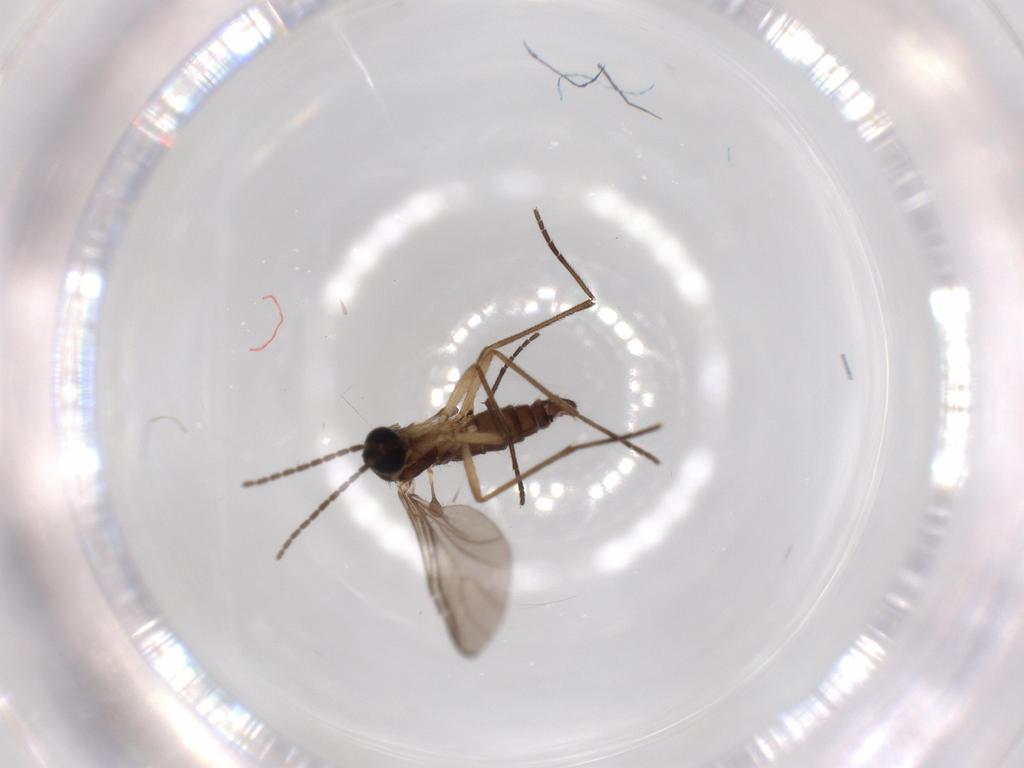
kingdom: Animalia
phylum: Arthropoda
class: Insecta
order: Diptera
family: Sciaridae
